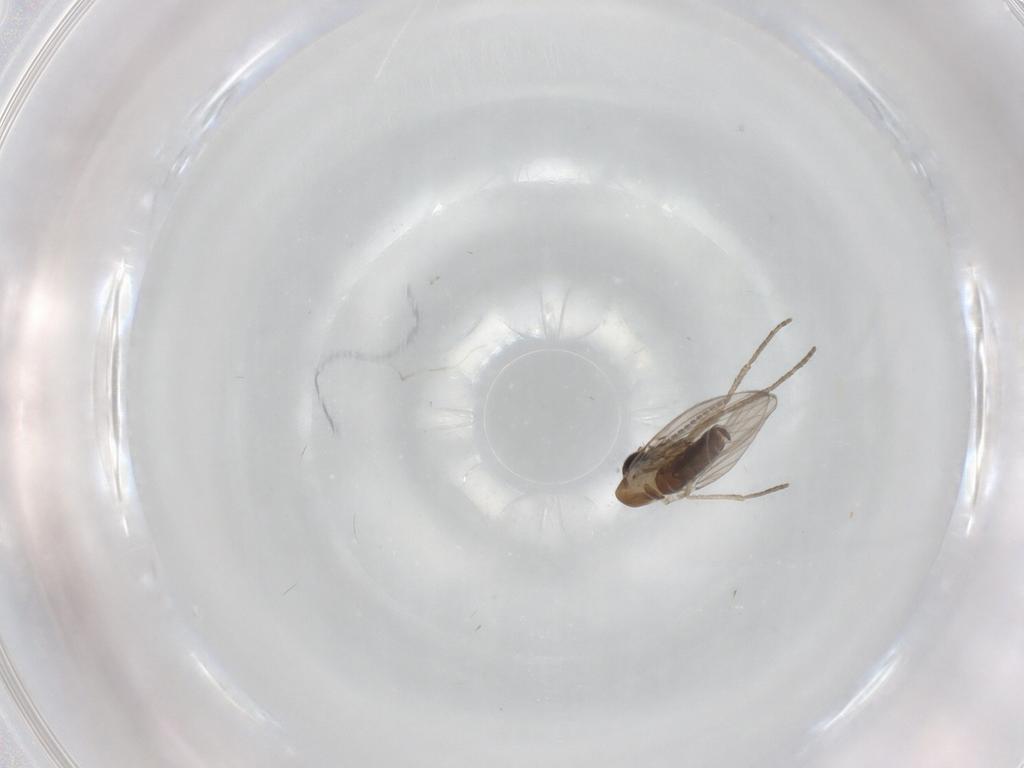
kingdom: Animalia
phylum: Arthropoda
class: Insecta
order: Diptera
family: Psychodidae
